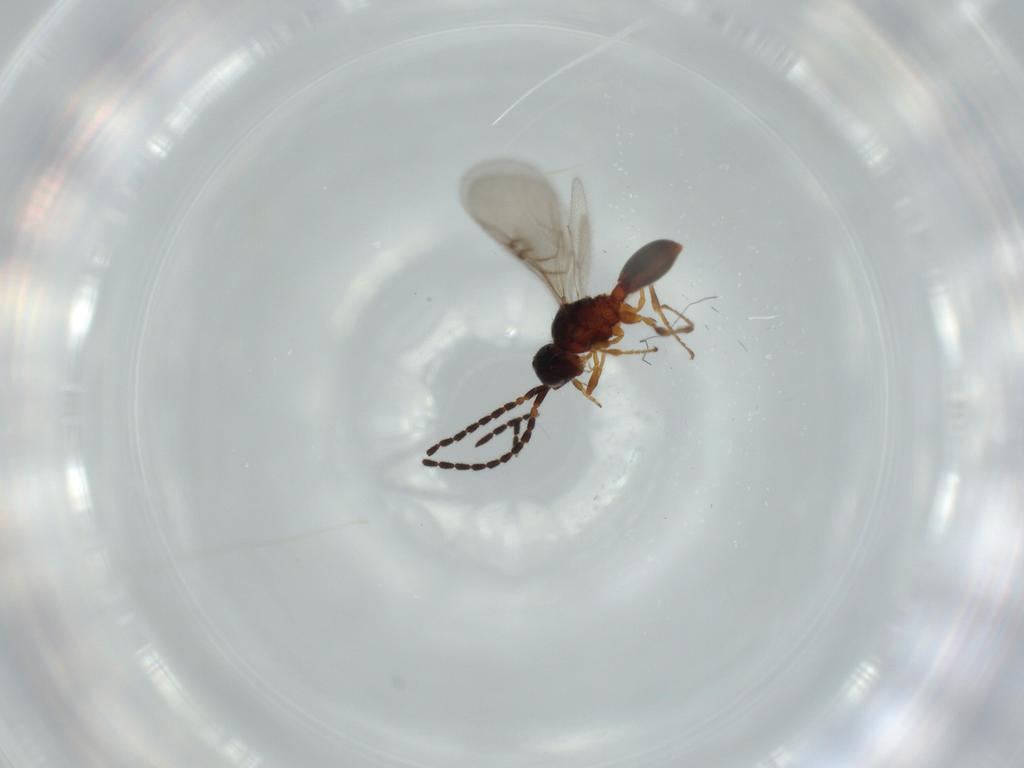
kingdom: Animalia
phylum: Arthropoda
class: Insecta
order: Hymenoptera
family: Diapriidae
